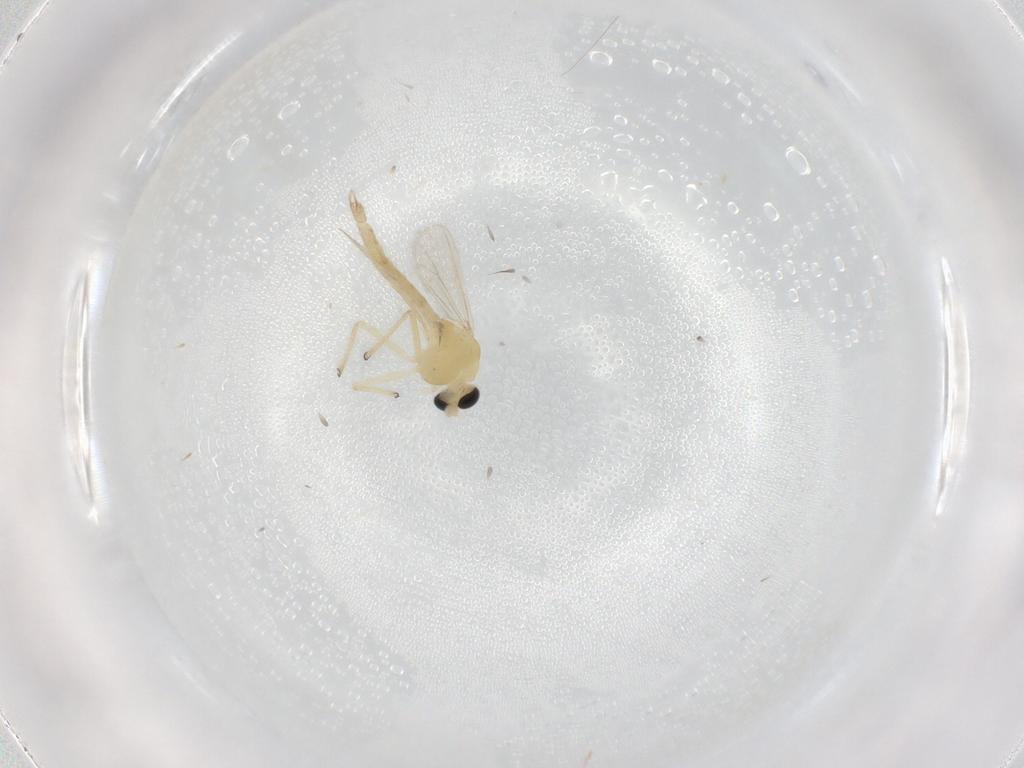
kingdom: Animalia
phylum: Arthropoda
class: Insecta
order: Diptera
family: Chironomidae
